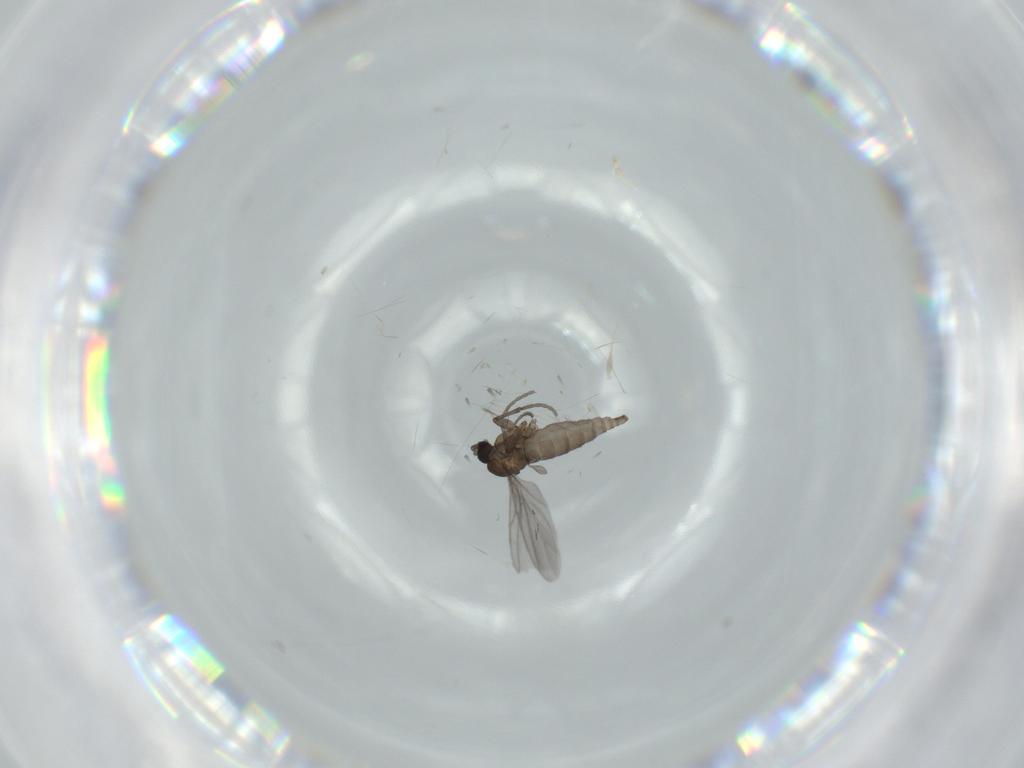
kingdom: Animalia
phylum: Arthropoda
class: Insecta
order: Diptera
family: Sciaridae
